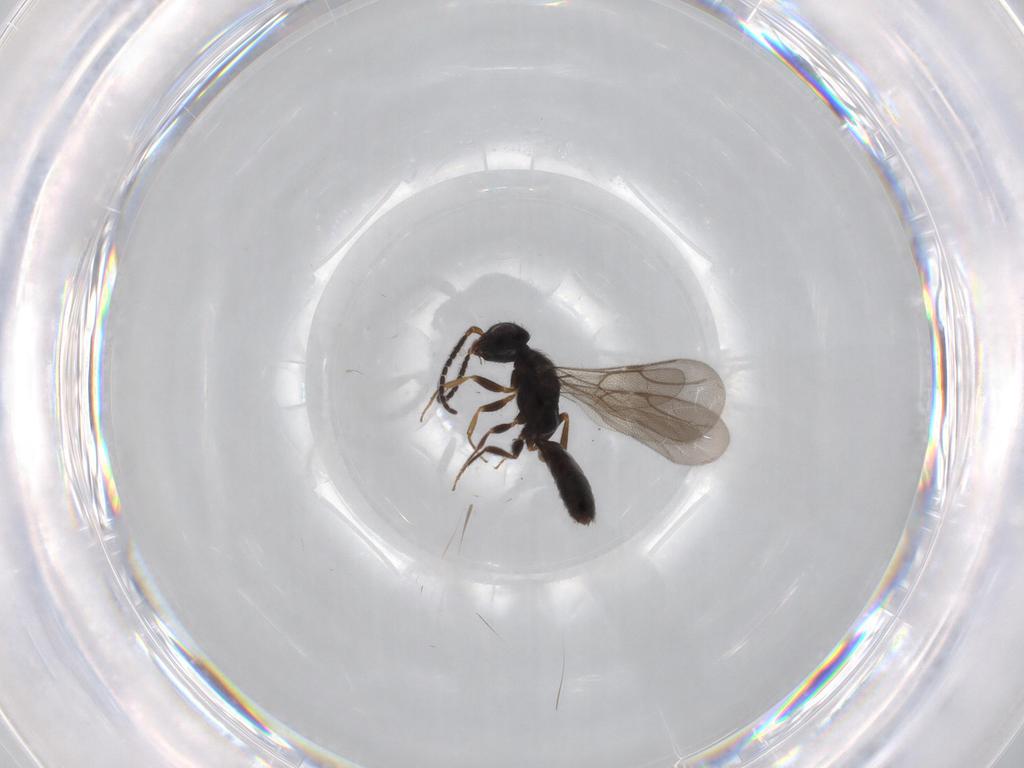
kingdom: Animalia
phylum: Arthropoda
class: Insecta
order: Hymenoptera
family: Bethylidae
